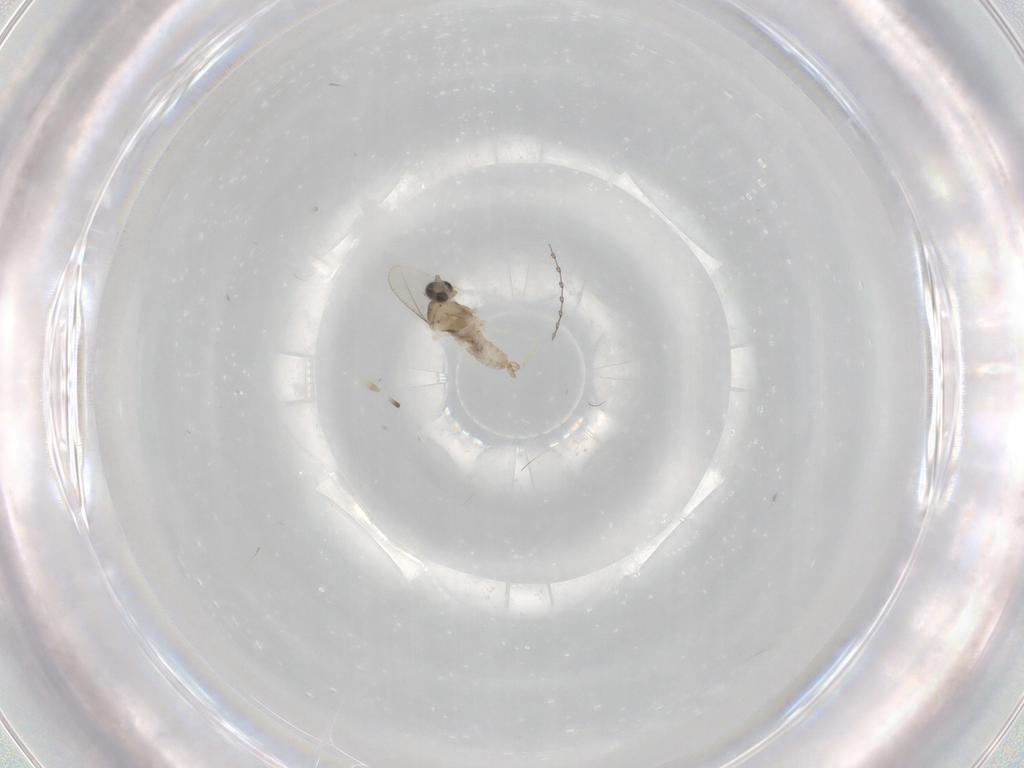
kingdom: Animalia
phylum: Arthropoda
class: Insecta
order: Diptera
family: Cecidomyiidae
